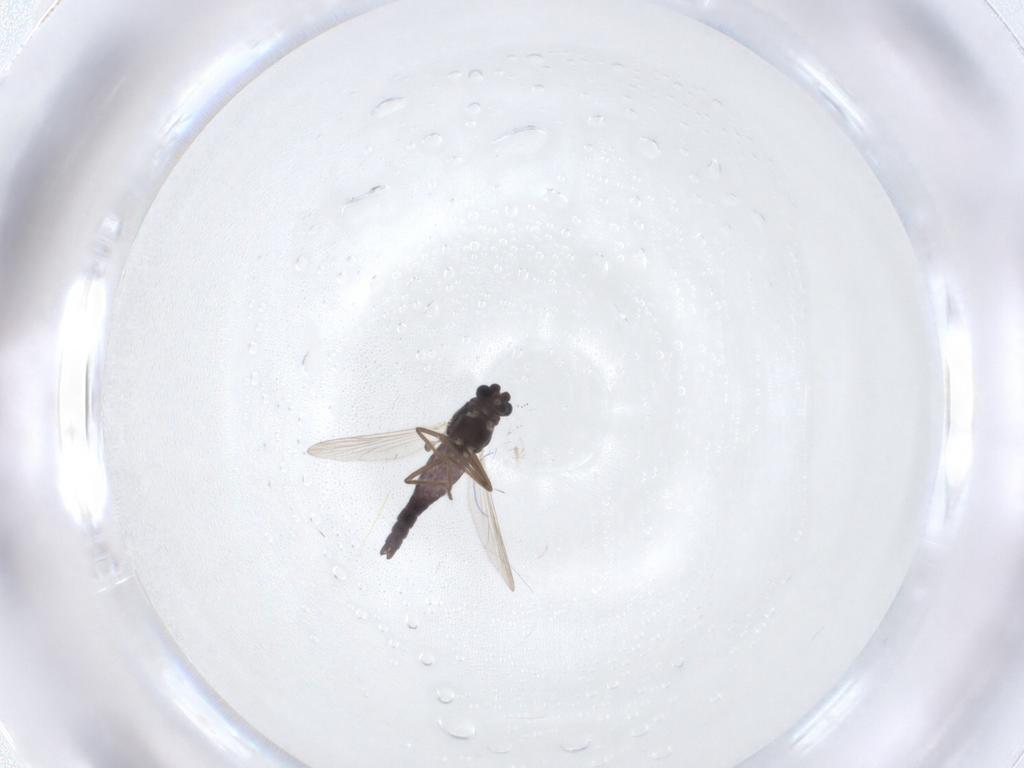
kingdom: Animalia
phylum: Arthropoda
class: Insecta
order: Diptera
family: Chironomidae
